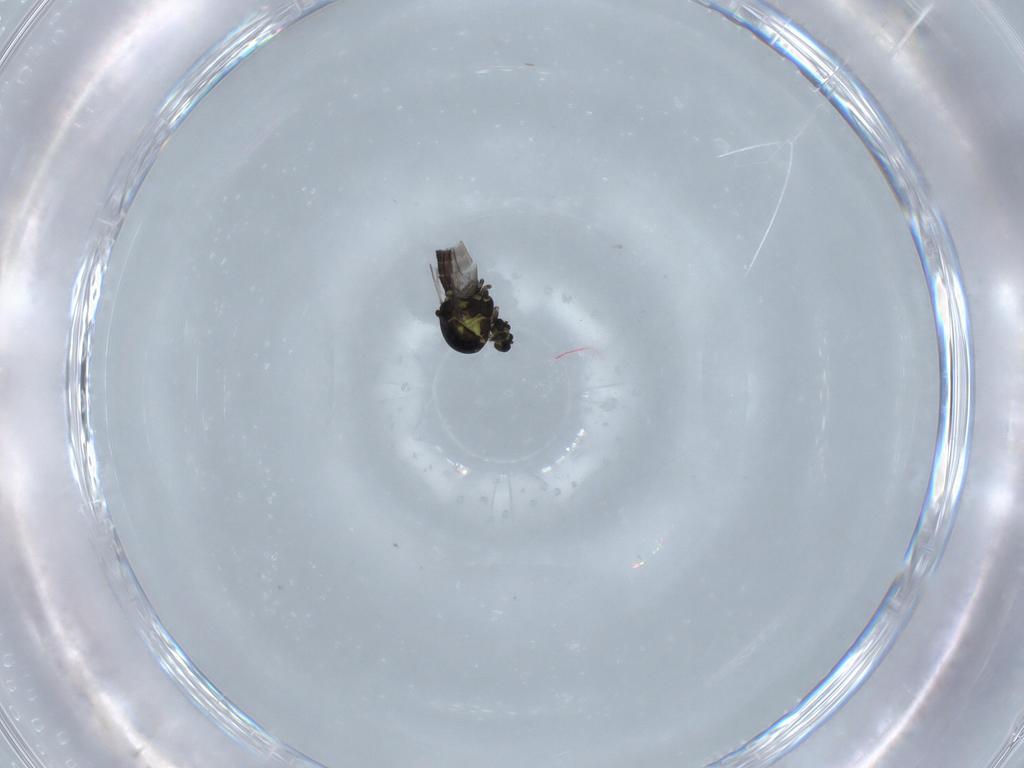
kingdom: Animalia
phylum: Arthropoda
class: Insecta
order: Diptera
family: Ceratopogonidae
